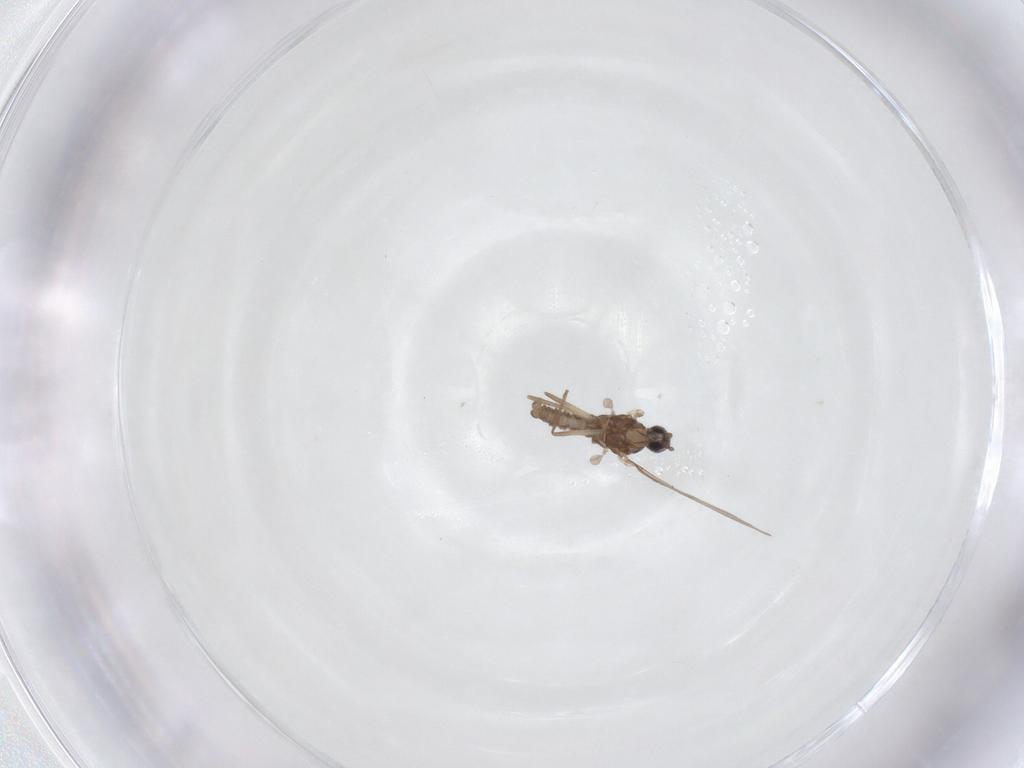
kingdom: Animalia
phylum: Arthropoda
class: Insecta
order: Diptera
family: Cecidomyiidae
